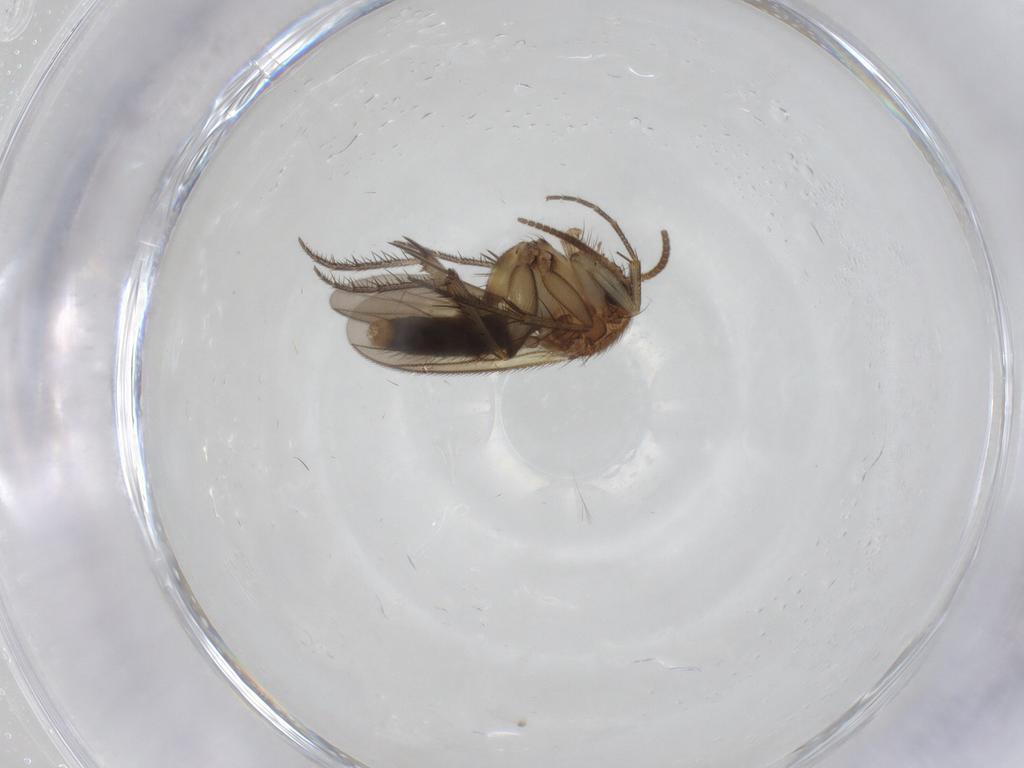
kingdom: Animalia
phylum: Arthropoda
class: Insecta
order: Diptera
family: Mycetophilidae
